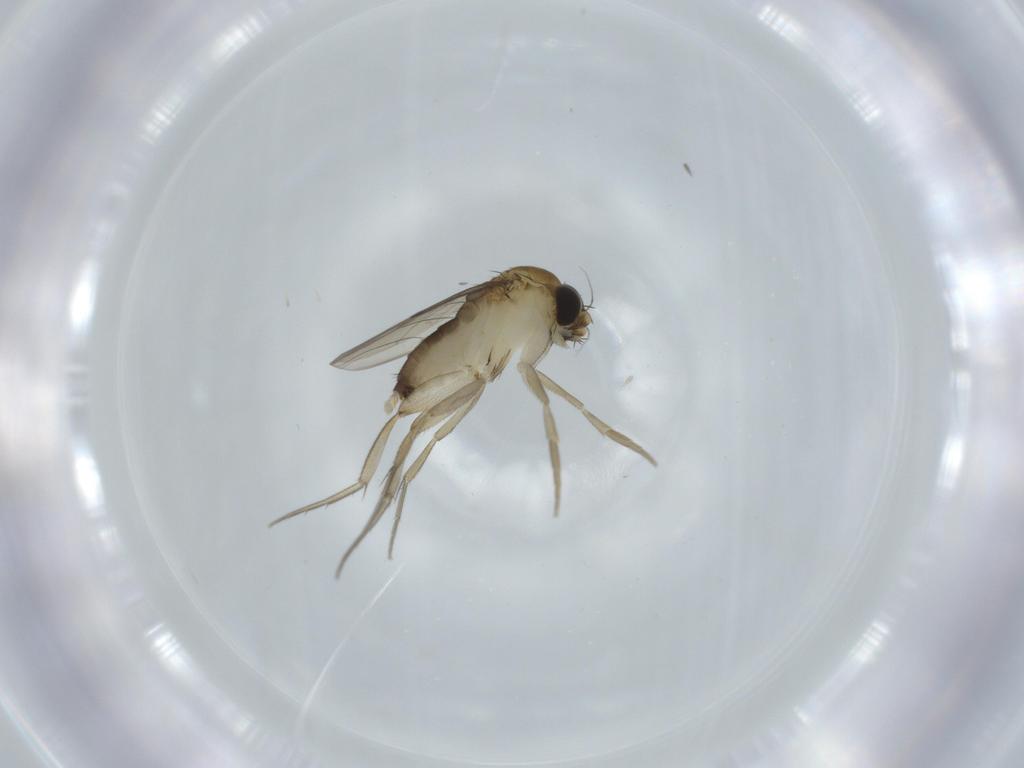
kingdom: Animalia
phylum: Arthropoda
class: Insecta
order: Diptera
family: Phoridae
